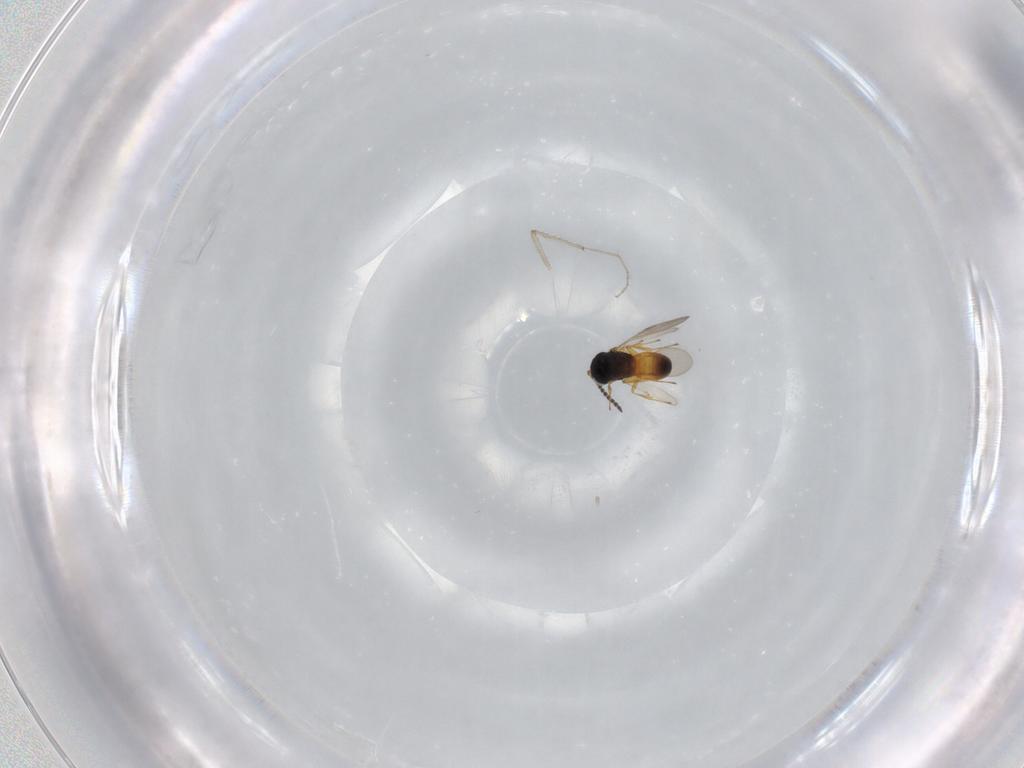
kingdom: Animalia
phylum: Arthropoda
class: Insecta
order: Hymenoptera
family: Scelionidae
